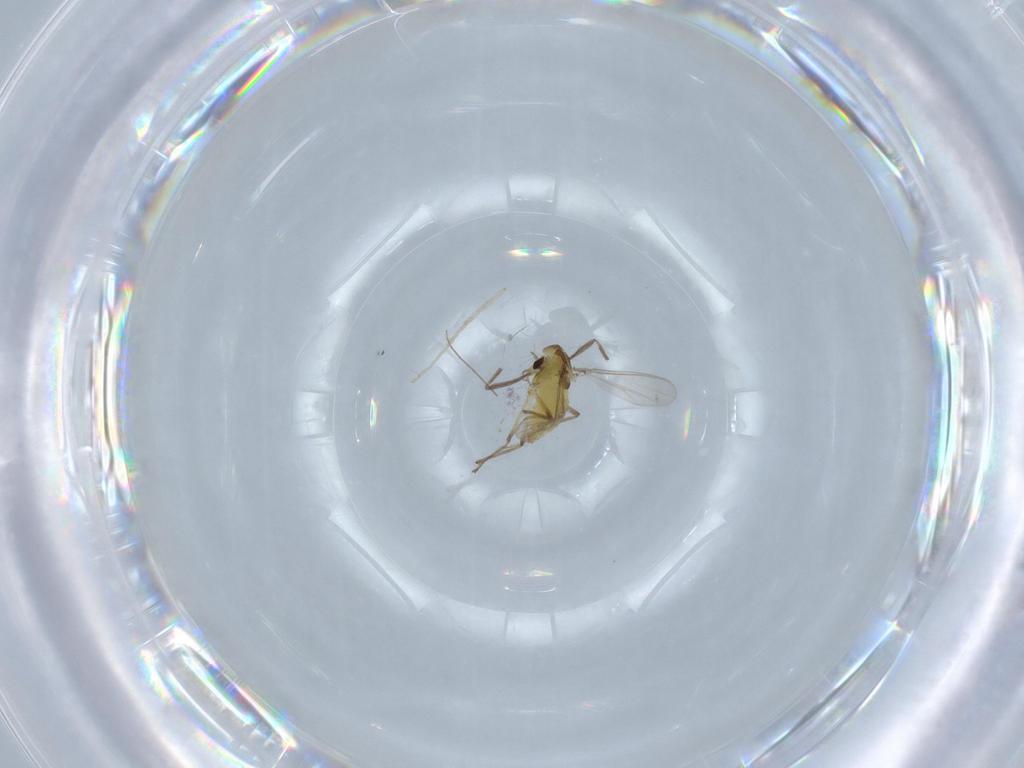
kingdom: Animalia
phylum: Arthropoda
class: Insecta
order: Diptera
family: Chironomidae
